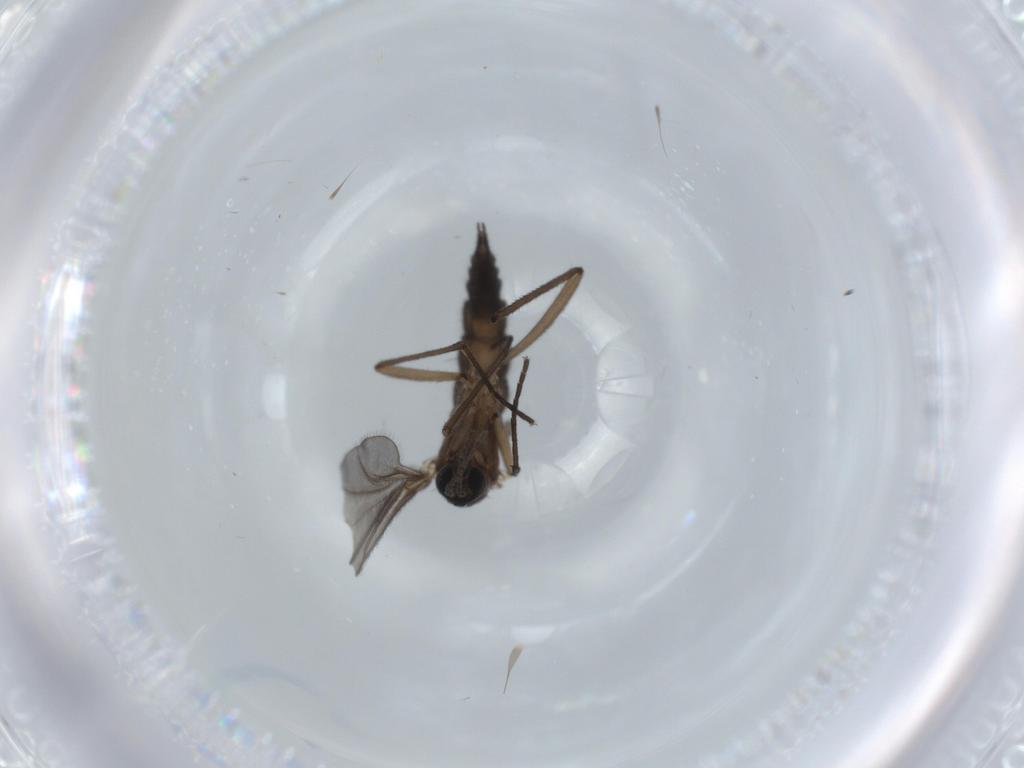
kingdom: Animalia
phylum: Arthropoda
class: Insecta
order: Diptera
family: Sciaridae
